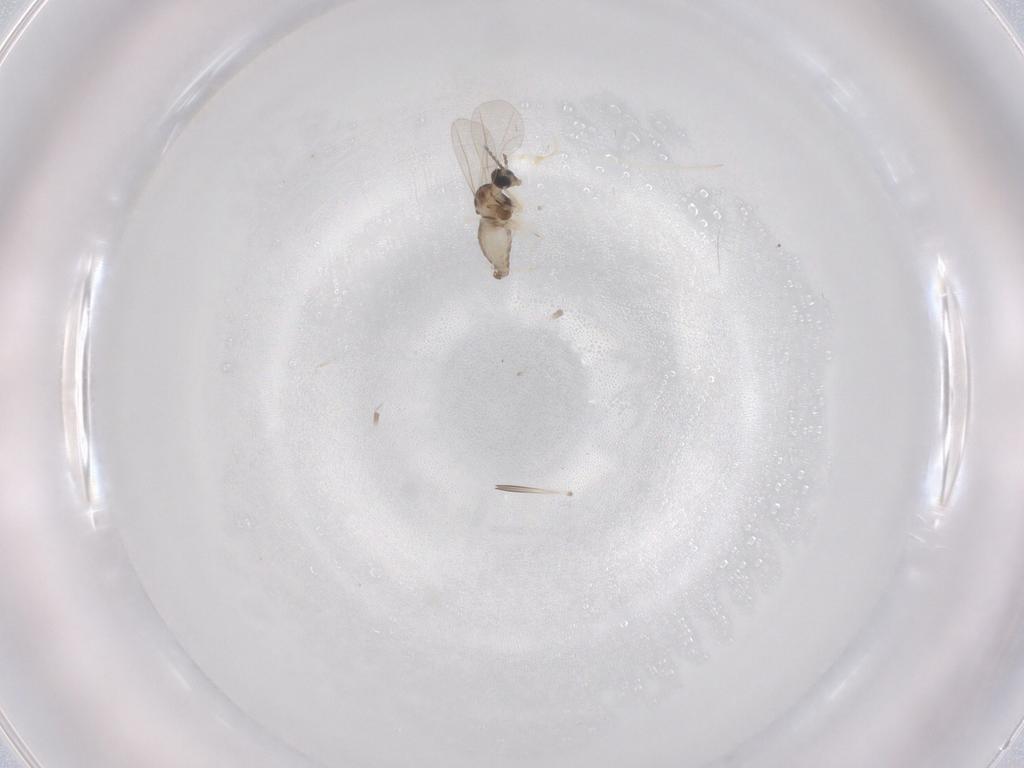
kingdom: Animalia
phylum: Arthropoda
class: Insecta
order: Diptera
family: Cecidomyiidae
